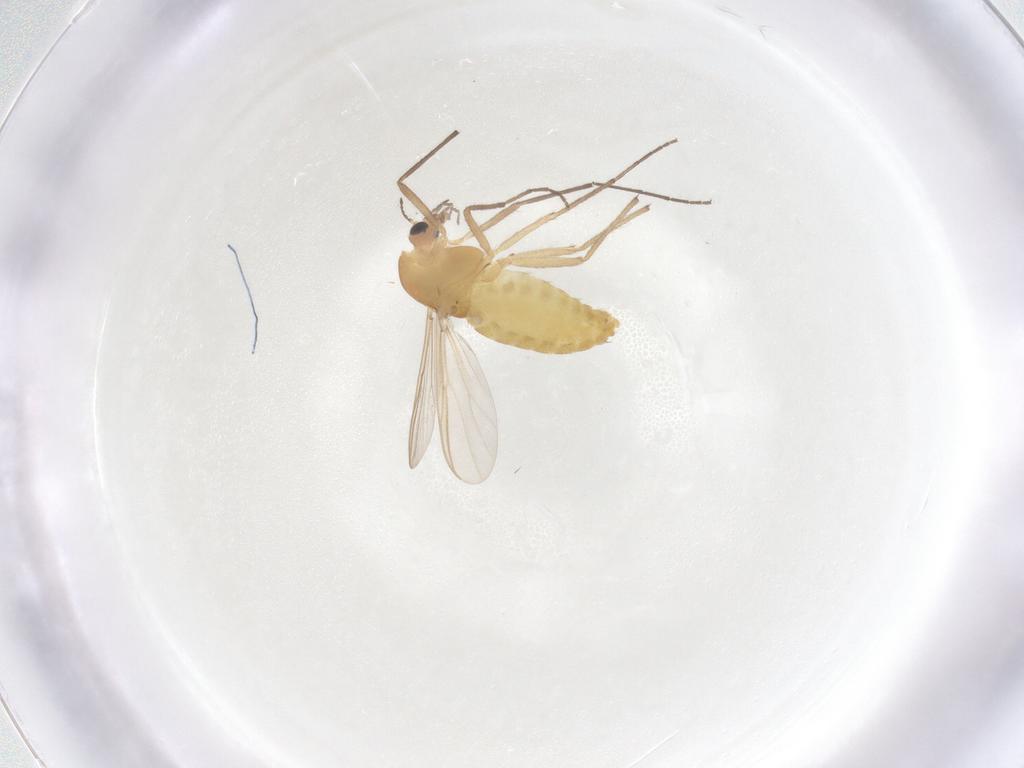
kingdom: Animalia
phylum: Arthropoda
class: Insecta
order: Diptera
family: Chironomidae
